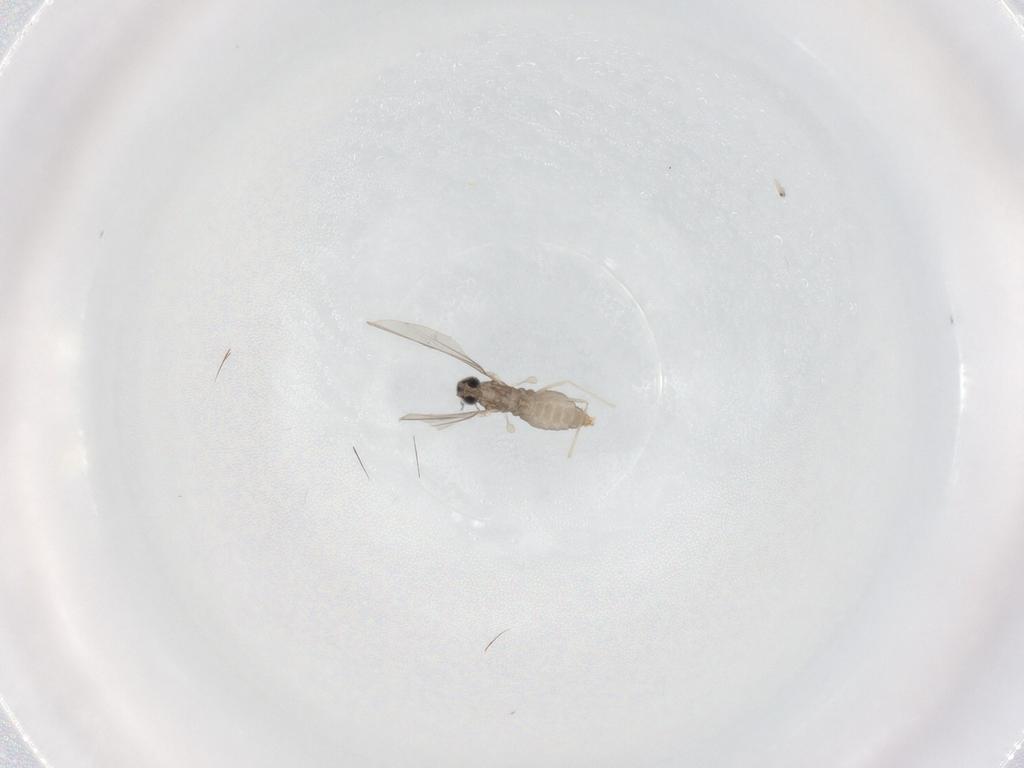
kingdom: Animalia
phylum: Arthropoda
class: Insecta
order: Diptera
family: Cecidomyiidae
